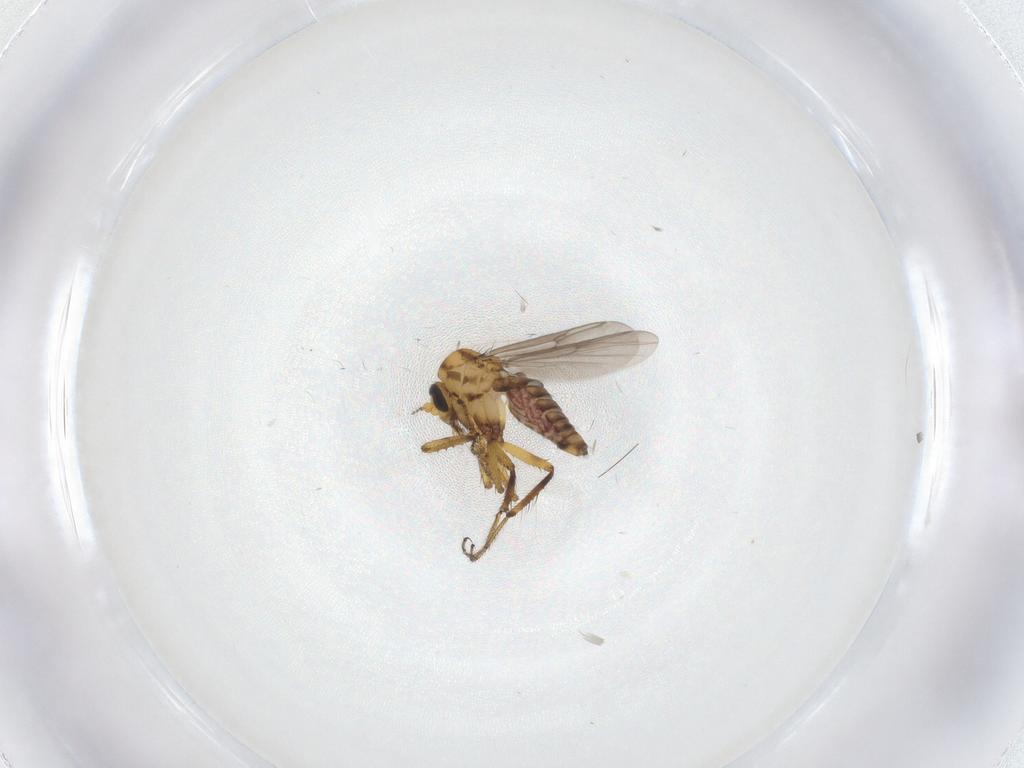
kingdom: Animalia
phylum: Arthropoda
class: Insecta
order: Diptera
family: Ceratopogonidae
